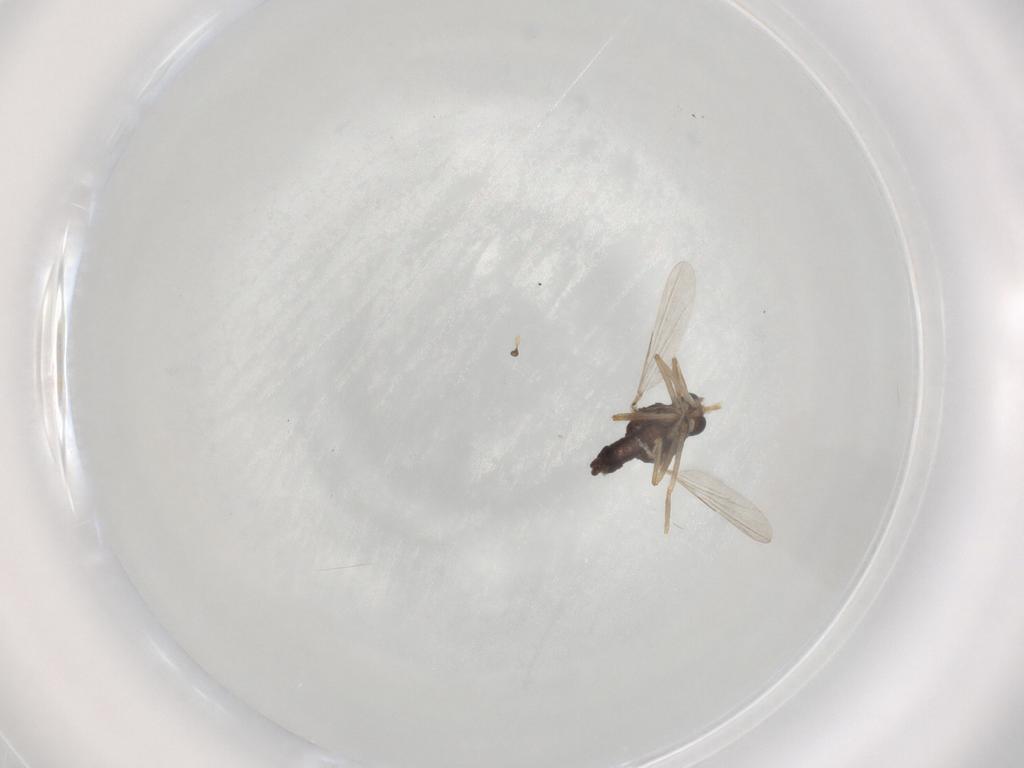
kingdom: Animalia
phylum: Arthropoda
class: Insecta
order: Diptera
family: Ceratopogonidae
